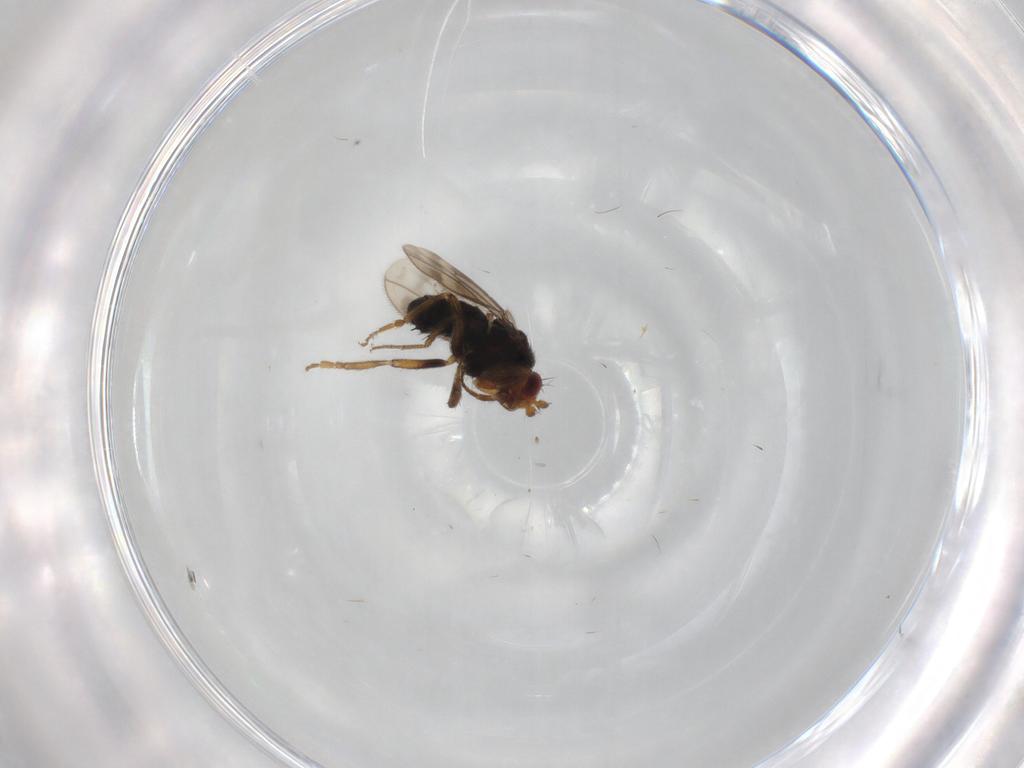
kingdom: Animalia
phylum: Arthropoda
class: Insecta
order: Diptera
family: Sphaeroceridae
